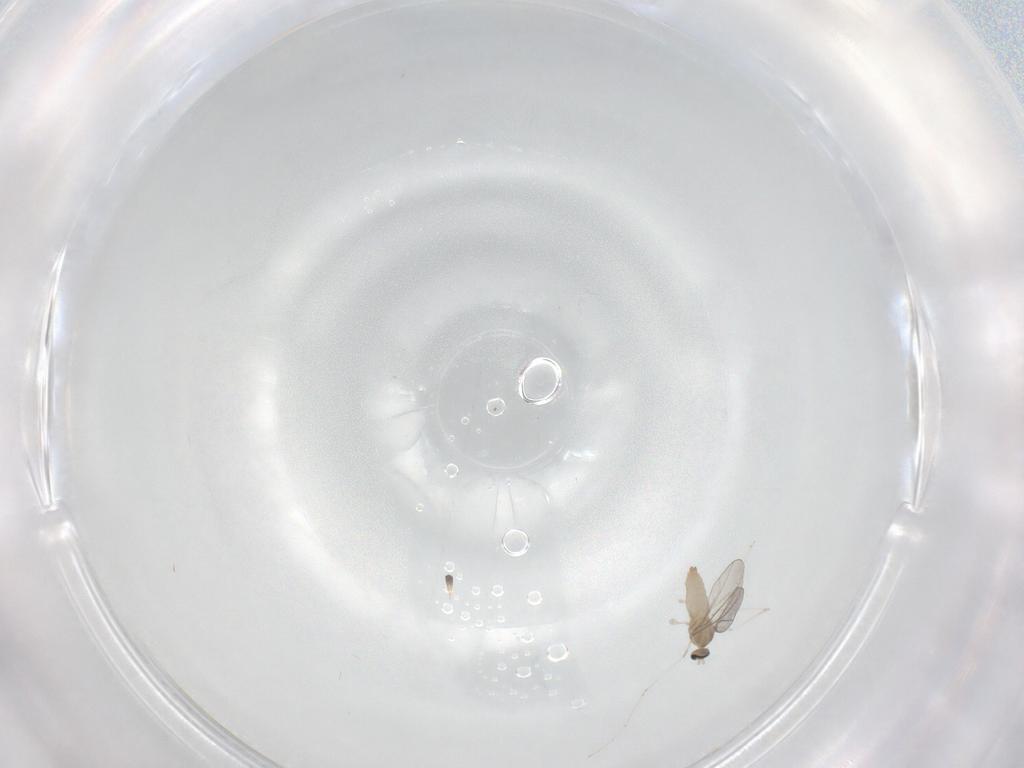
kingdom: Animalia
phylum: Arthropoda
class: Insecta
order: Diptera
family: Cecidomyiidae
